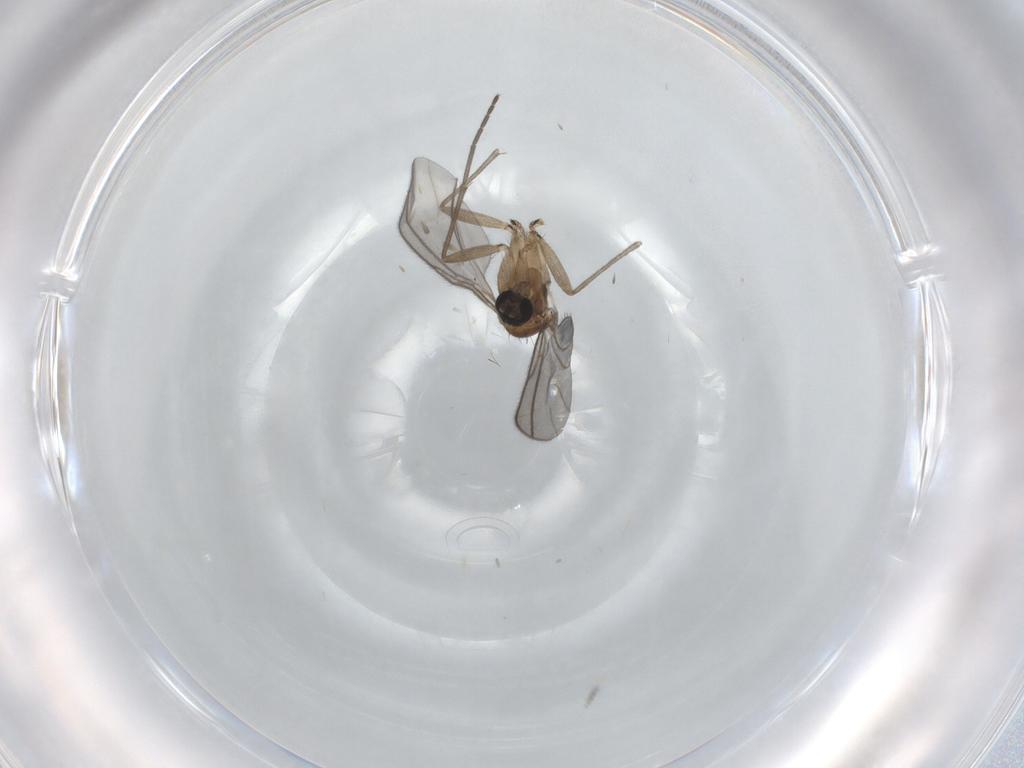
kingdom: Animalia
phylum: Arthropoda
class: Insecta
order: Diptera
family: Sciaridae
